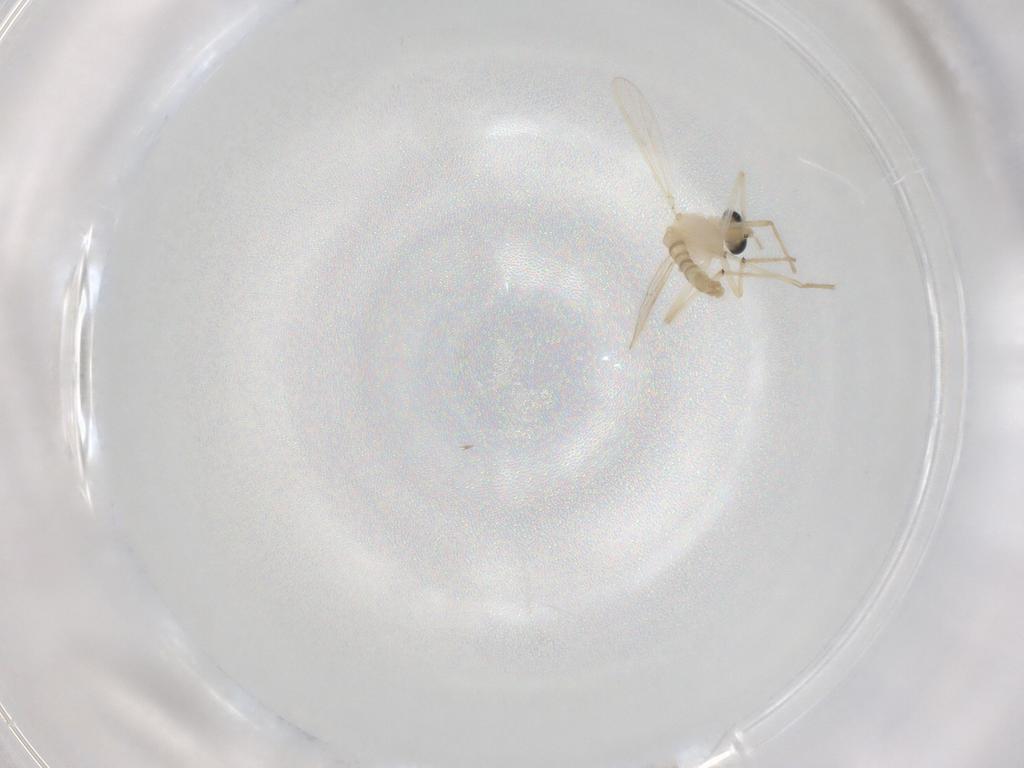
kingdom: Animalia
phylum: Arthropoda
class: Insecta
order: Diptera
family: Chironomidae
